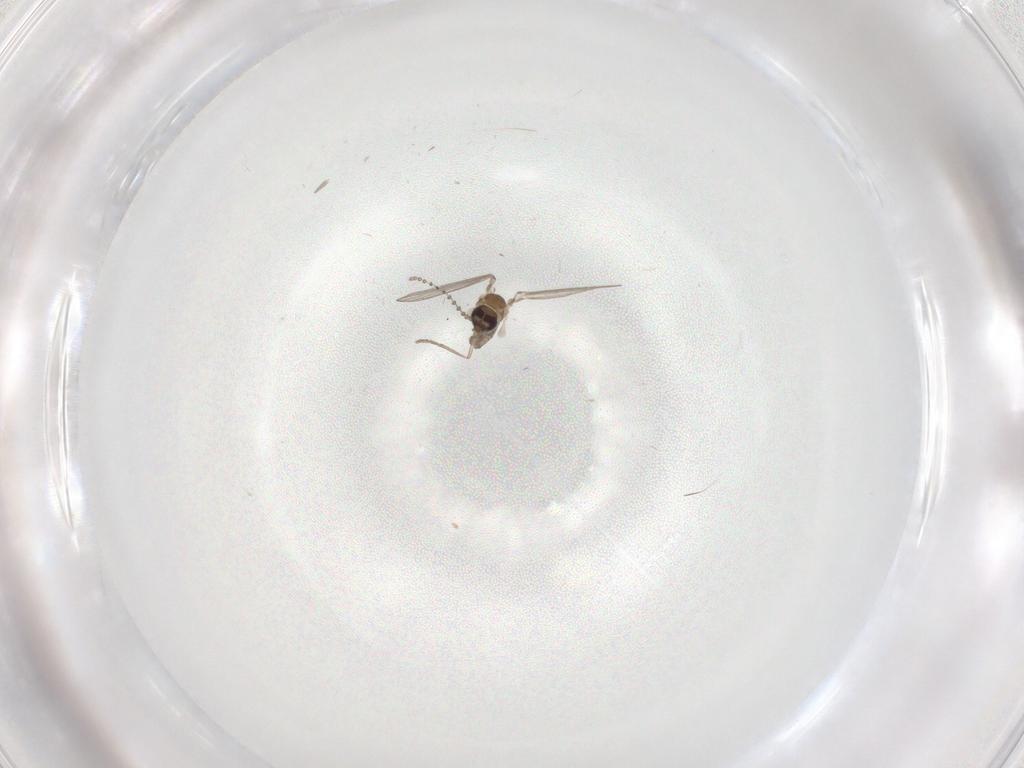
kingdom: Animalia
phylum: Arthropoda
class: Insecta
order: Diptera
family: Psychodidae
